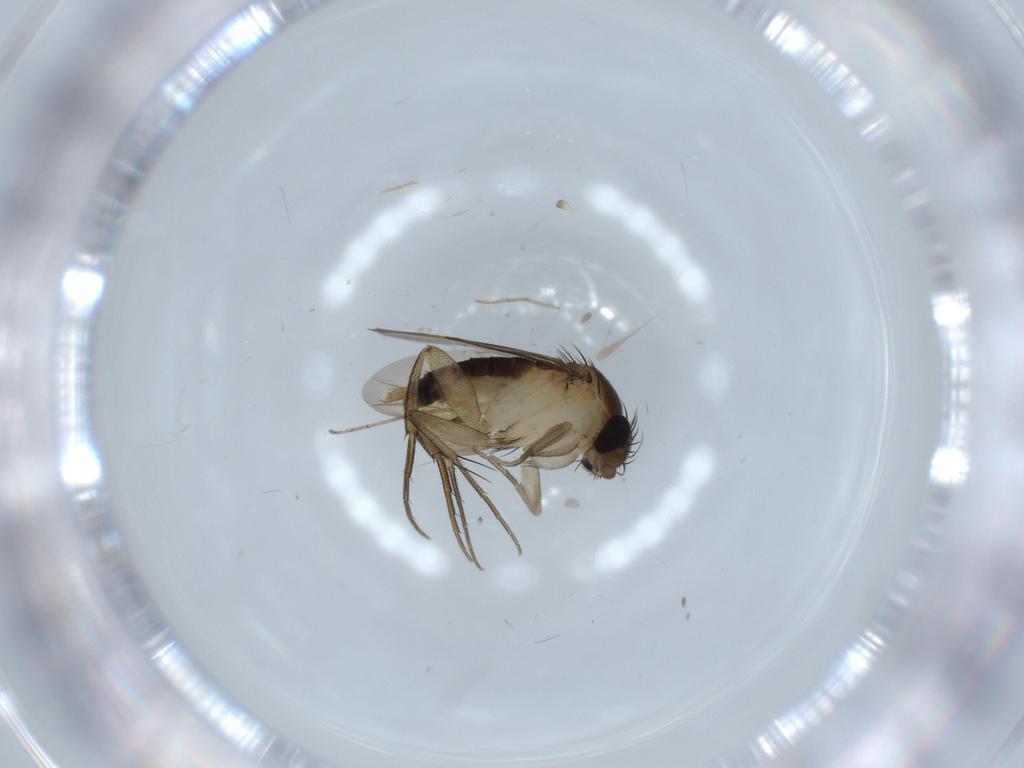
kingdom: Animalia
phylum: Arthropoda
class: Insecta
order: Diptera
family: Cecidomyiidae
